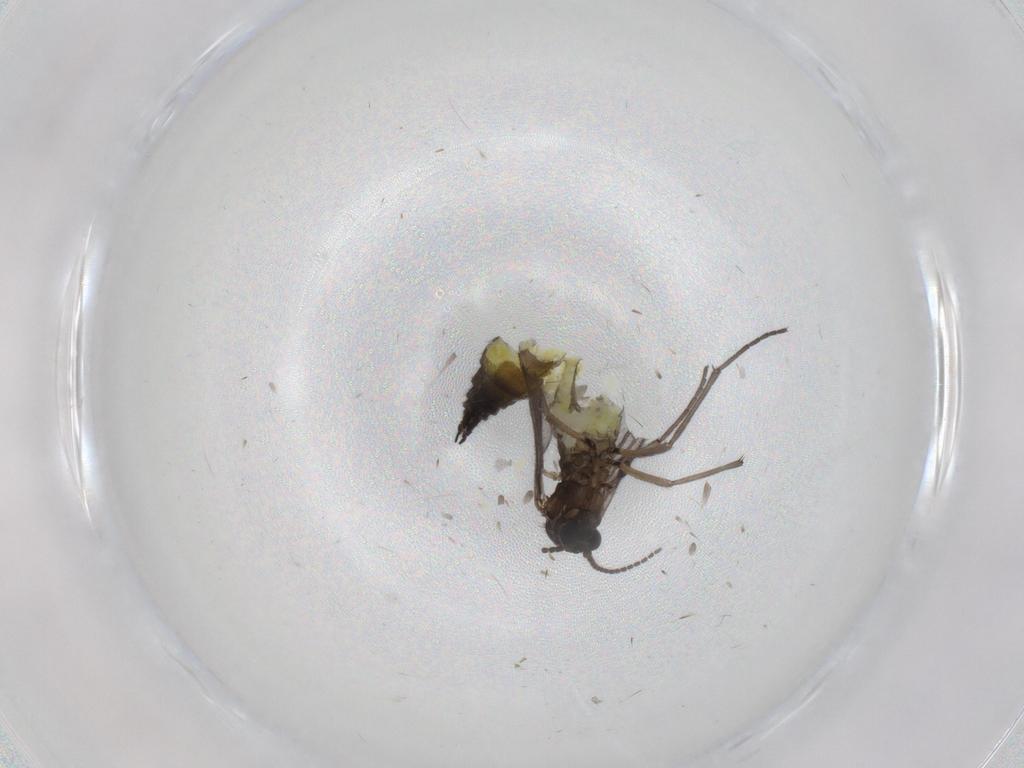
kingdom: Animalia
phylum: Arthropoda
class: Insecta
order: Diptera
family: Sciaridae
